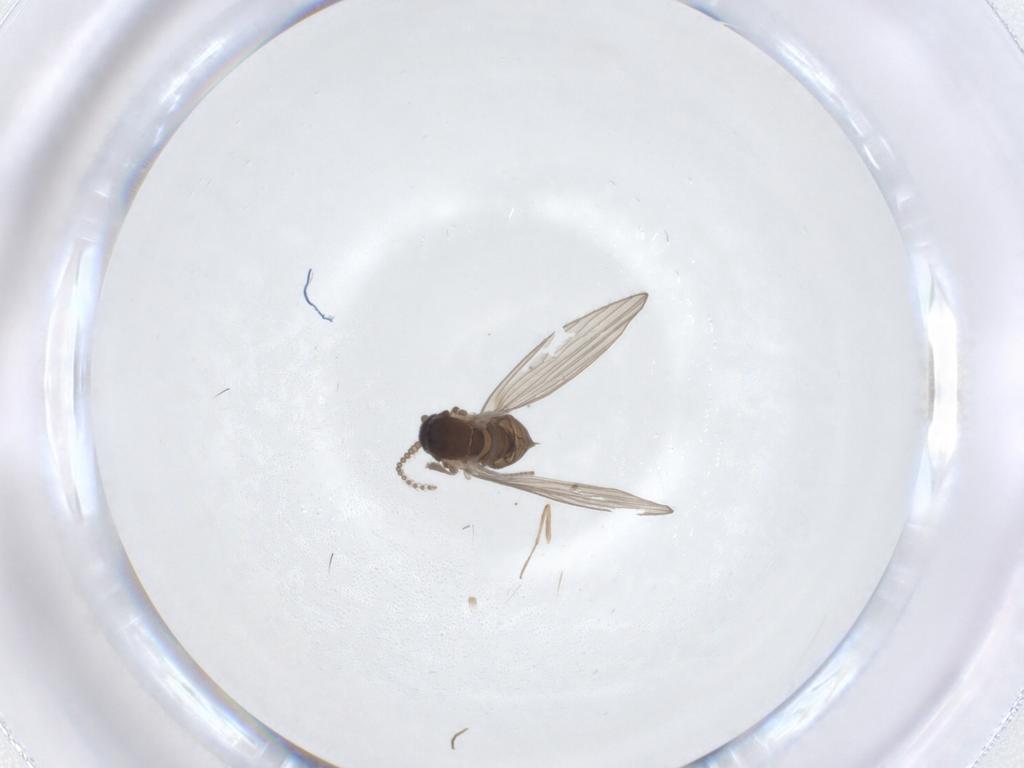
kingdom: Animalia
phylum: Arthropoda
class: Insecta
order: Diptera
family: Psychodidae
